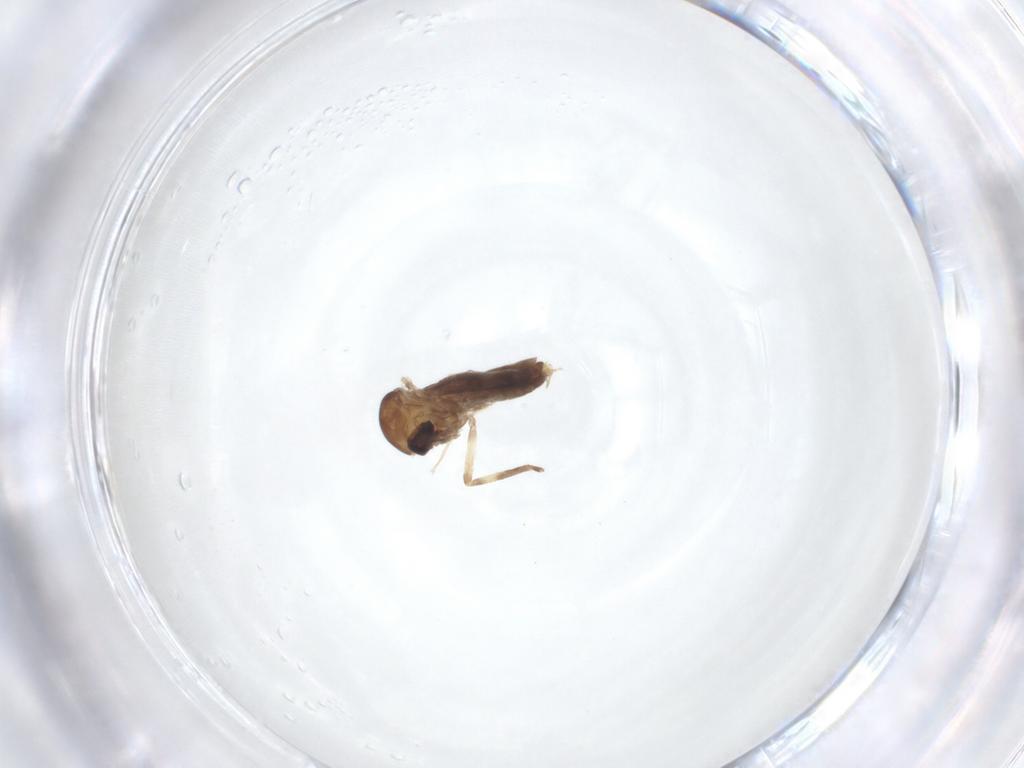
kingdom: Animalia
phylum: Arthropoda
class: Insecta
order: Diptera
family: Ceratopogonidae
